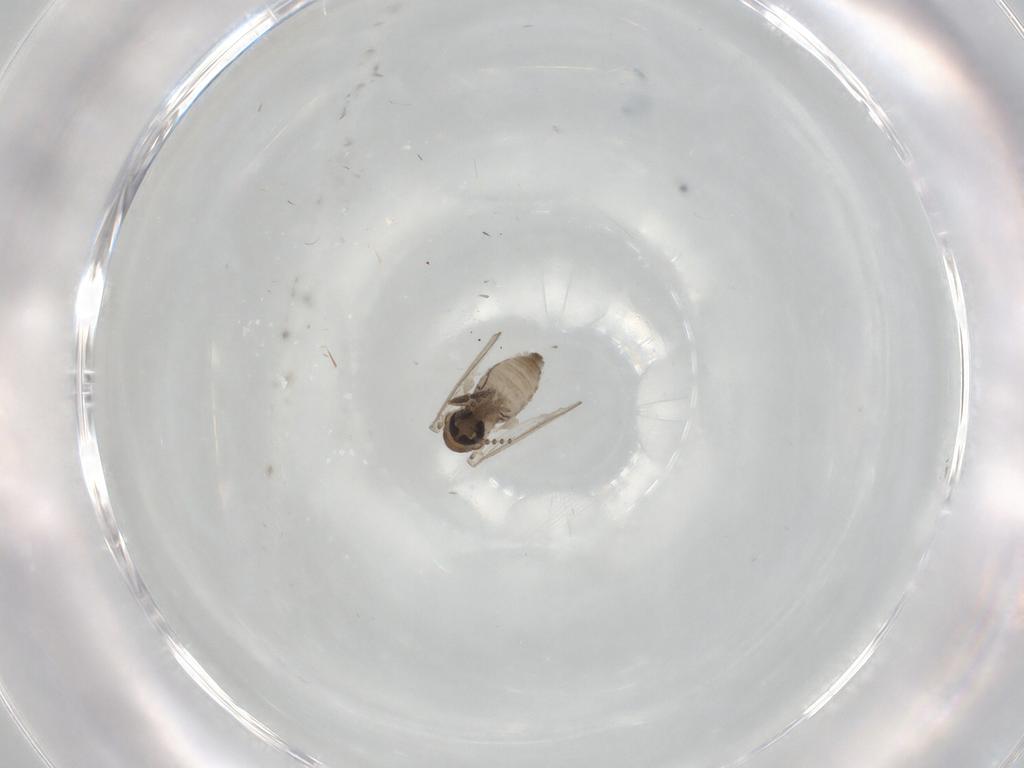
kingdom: Animalia
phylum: Arthropoda
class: Insecta
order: Diptera
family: Psychodidae
